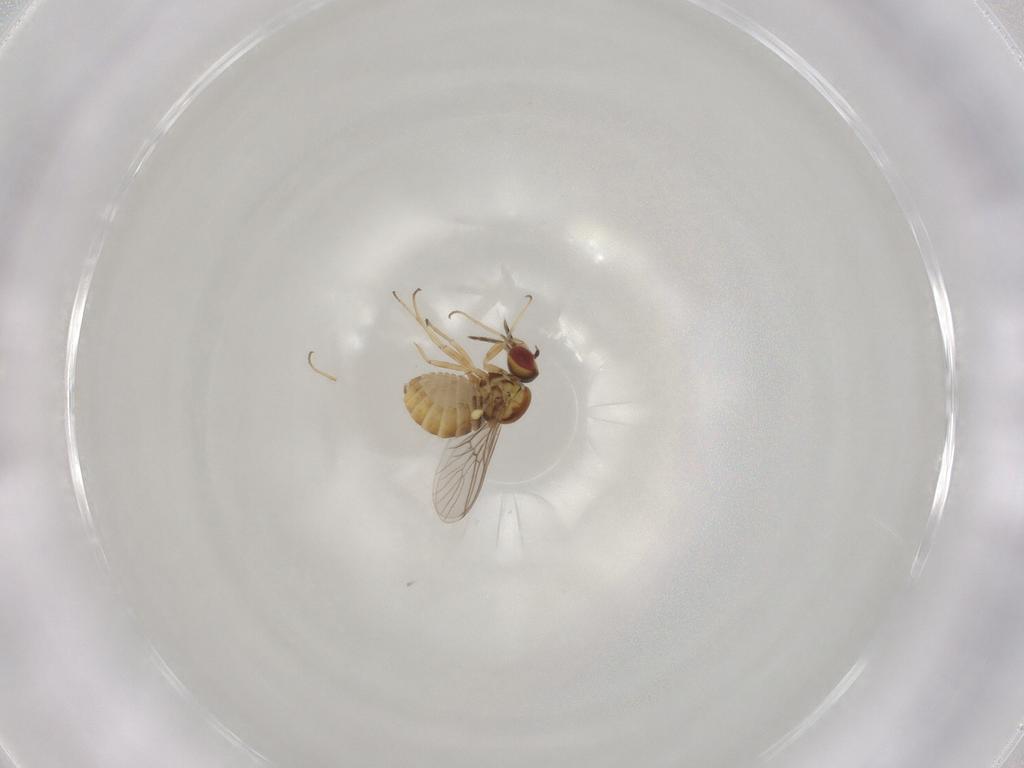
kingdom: Animalia
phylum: Arthropoda
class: Insecta
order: Diptera
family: Mythicomyiidae
